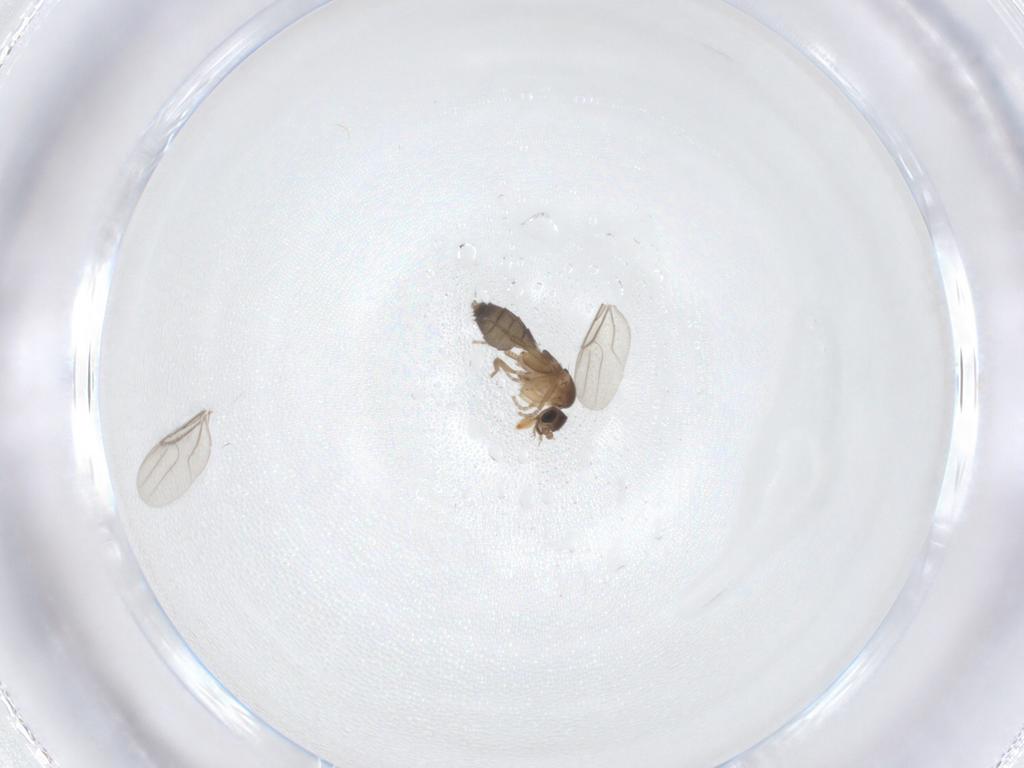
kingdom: Animalia
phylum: Arthropoda
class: Insecta
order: Diptera
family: Phoridae
